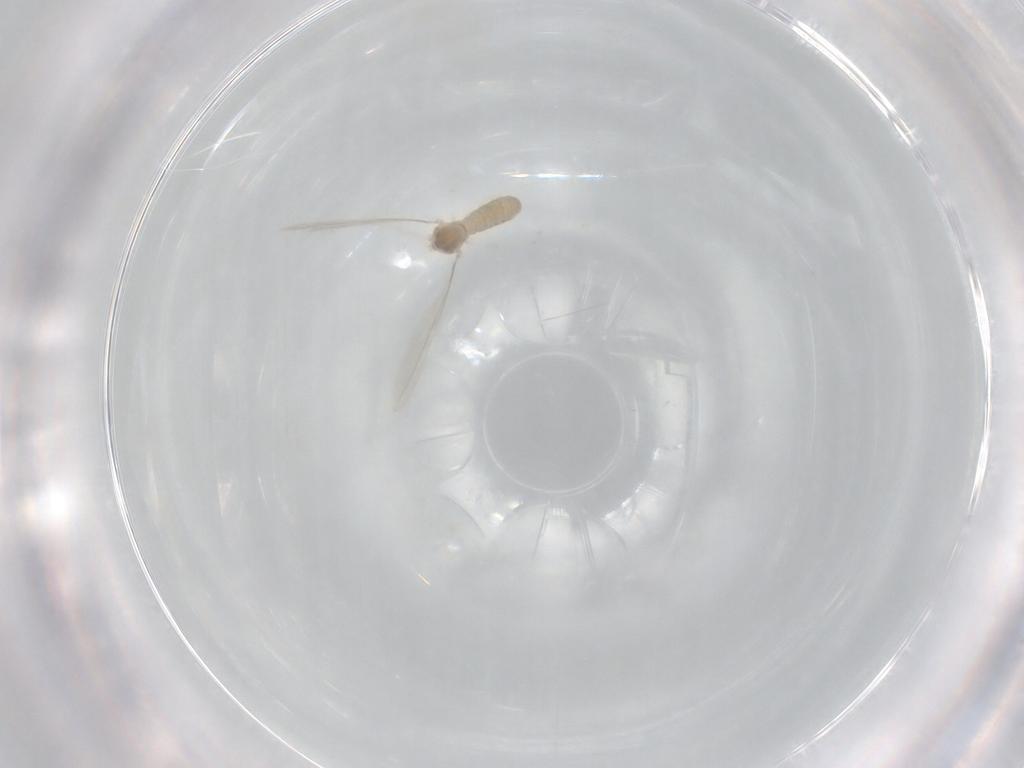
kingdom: Animalia
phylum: Arthropoda
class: Insecta
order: Diptera
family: Cecidomyiidae
